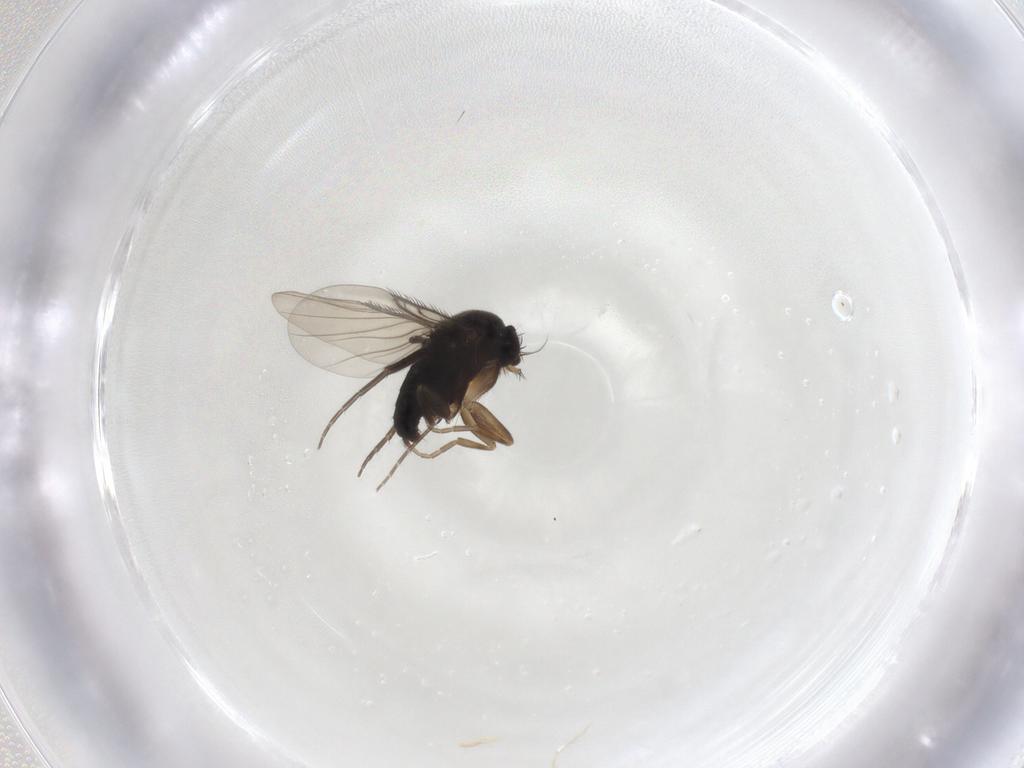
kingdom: Animalia
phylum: Arthropoda
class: Insecta
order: Diptera
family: Phoridae
